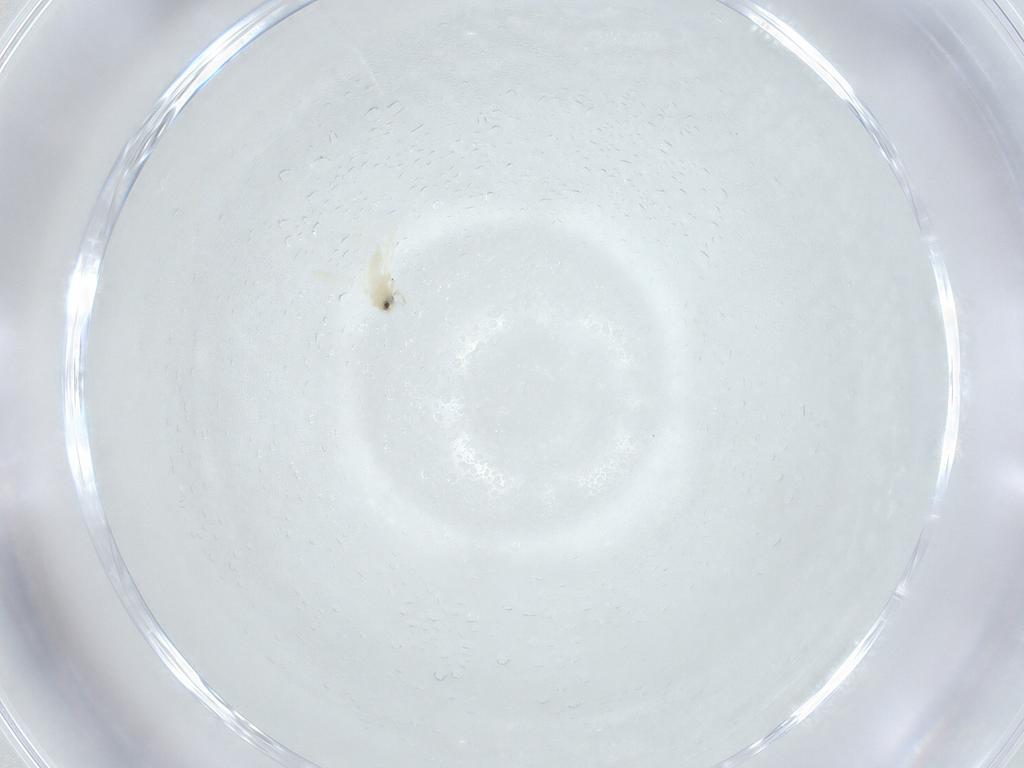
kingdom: Animalia
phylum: Arthropoda
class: Insecta
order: Hemiptera
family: Aleyrodidae
